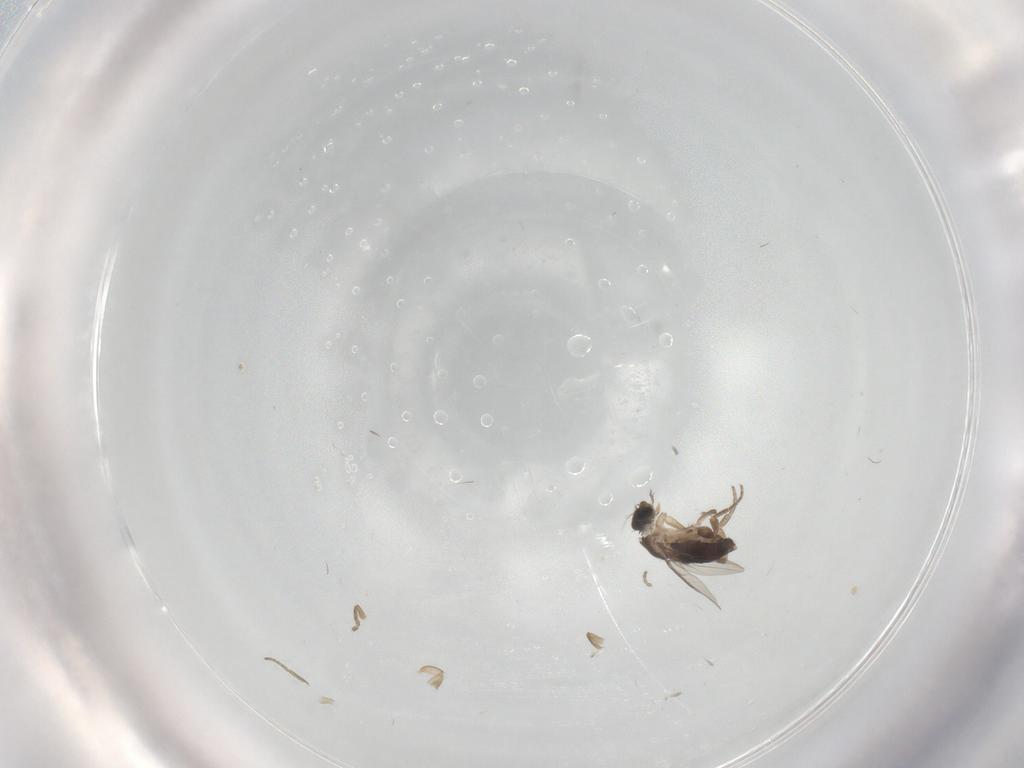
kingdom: Animalia
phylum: Arthropoda
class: Insecta
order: Diptera
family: Phoridae
